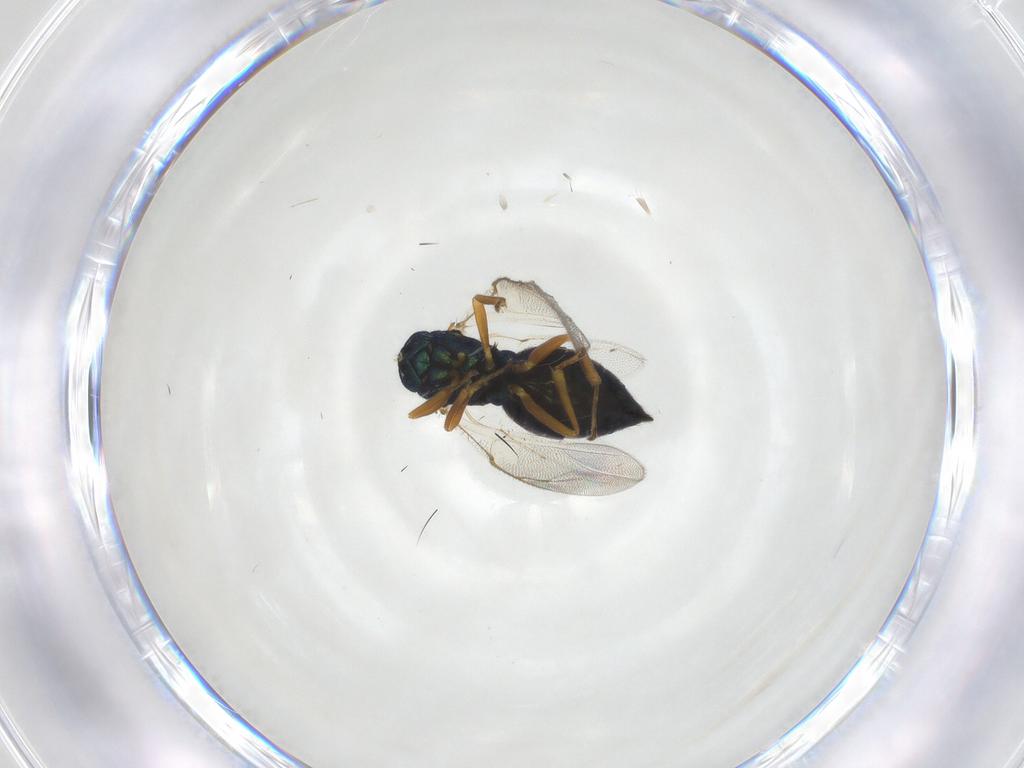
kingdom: Animalia
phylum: Arthropoda
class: Insecta
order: Hymenoptera
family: Pteromalidae
